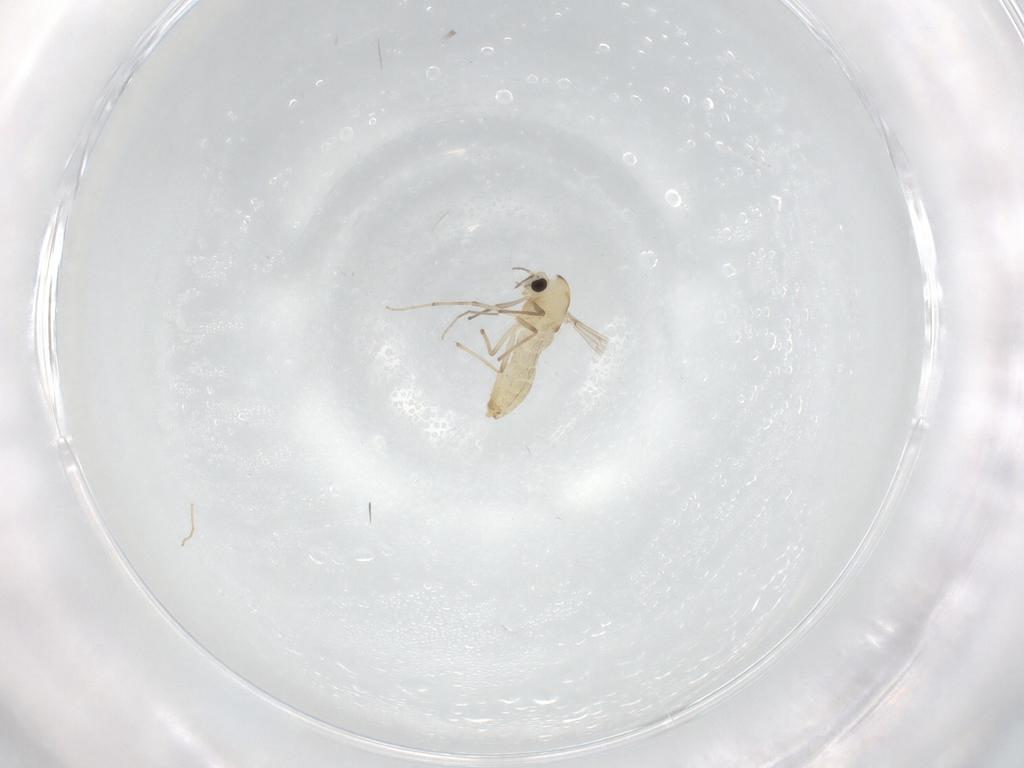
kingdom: Animalia
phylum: Arthropoda
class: Insecta
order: Diptera
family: Chironomidae
